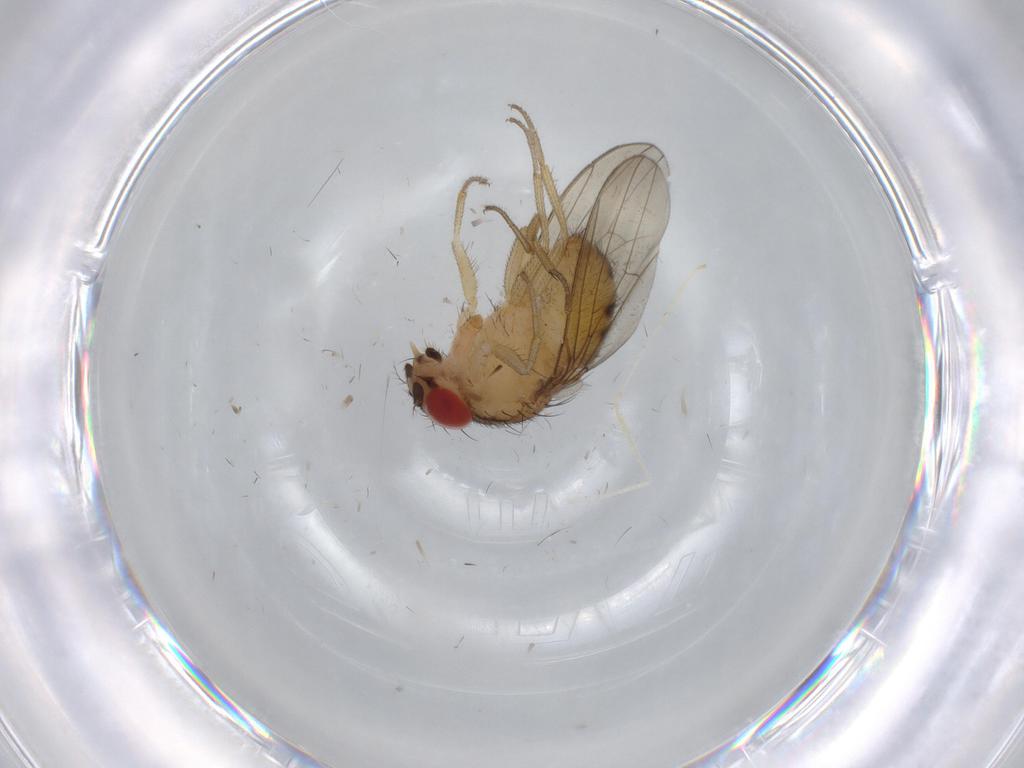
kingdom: Animalia
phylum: Arthropoda
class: Insecta
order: Diptera
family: Drosophilidae
